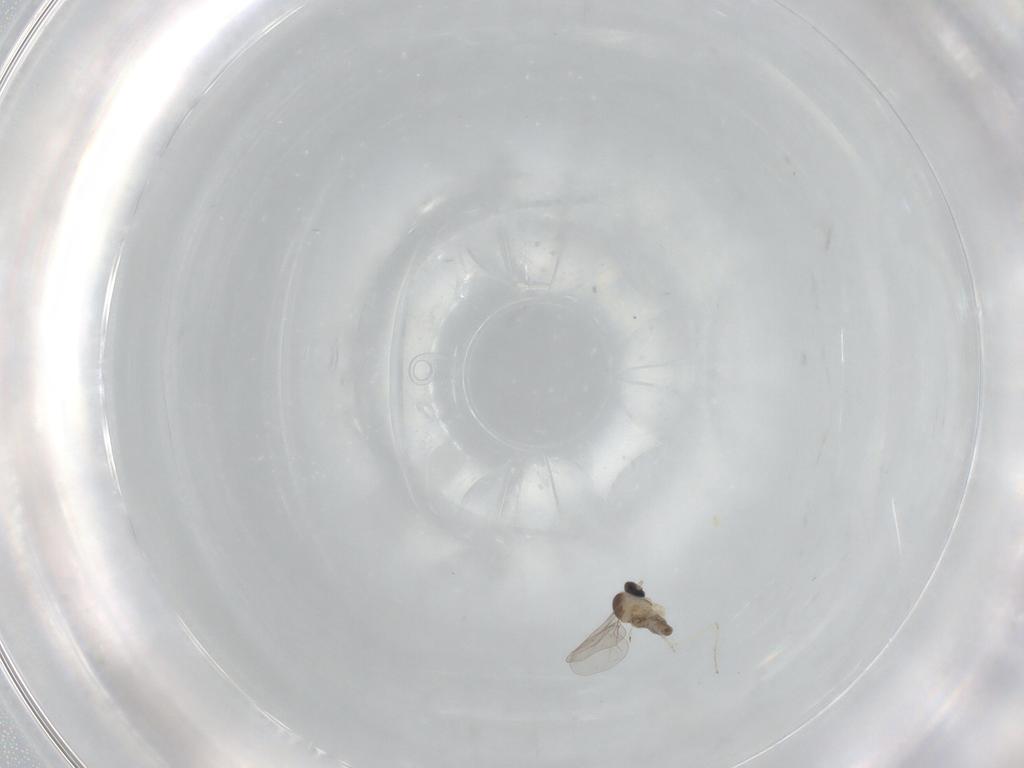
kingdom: Animalia
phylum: Arthropoda
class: Insecta
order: Diptera
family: Cecidomyiidae
